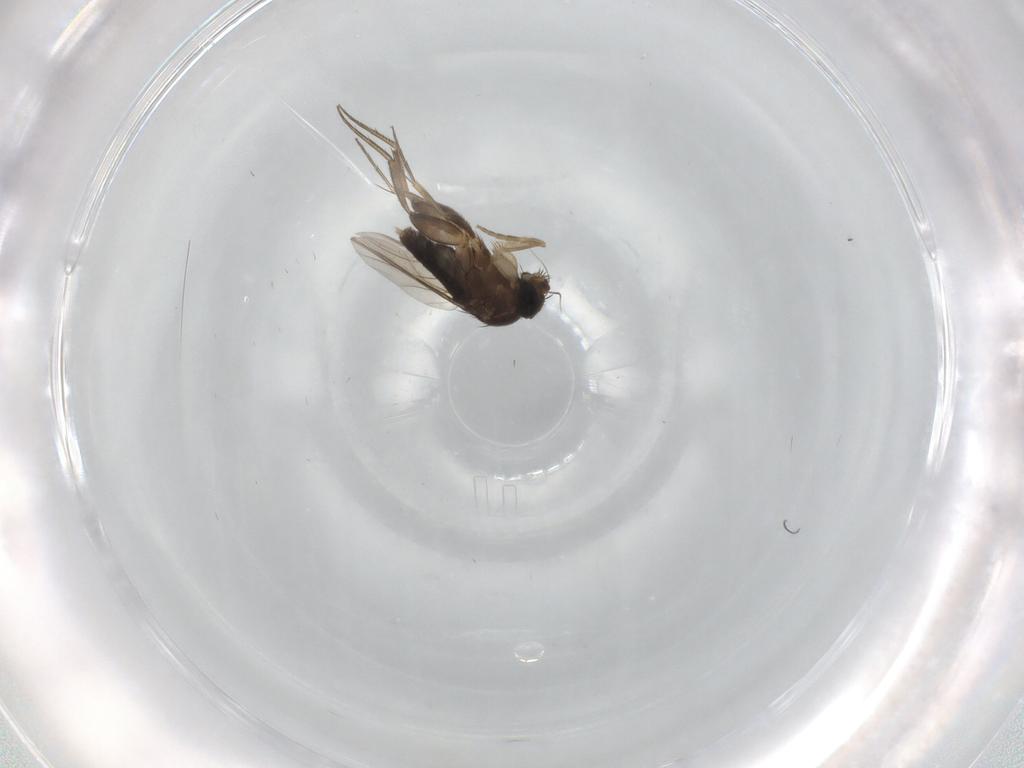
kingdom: Animalia
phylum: Arthropoda
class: Insecta
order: Diptera
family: Phoridae
